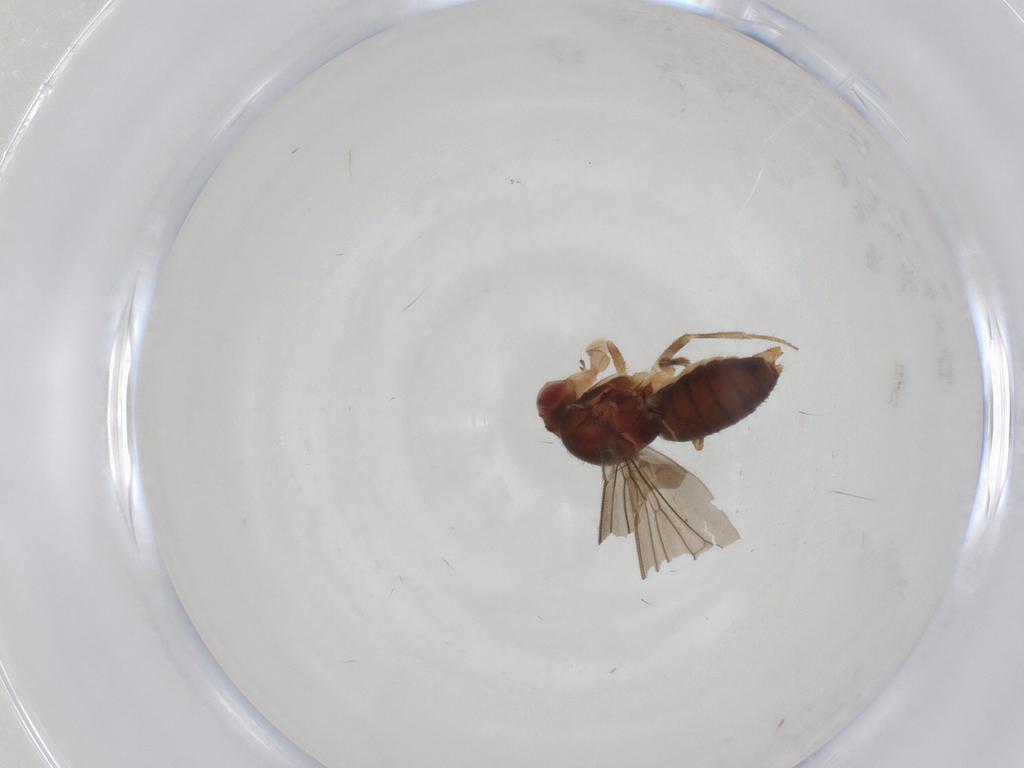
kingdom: Animalia
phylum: Arthropoda
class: Insecta
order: Diptera
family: Drosophilidae
